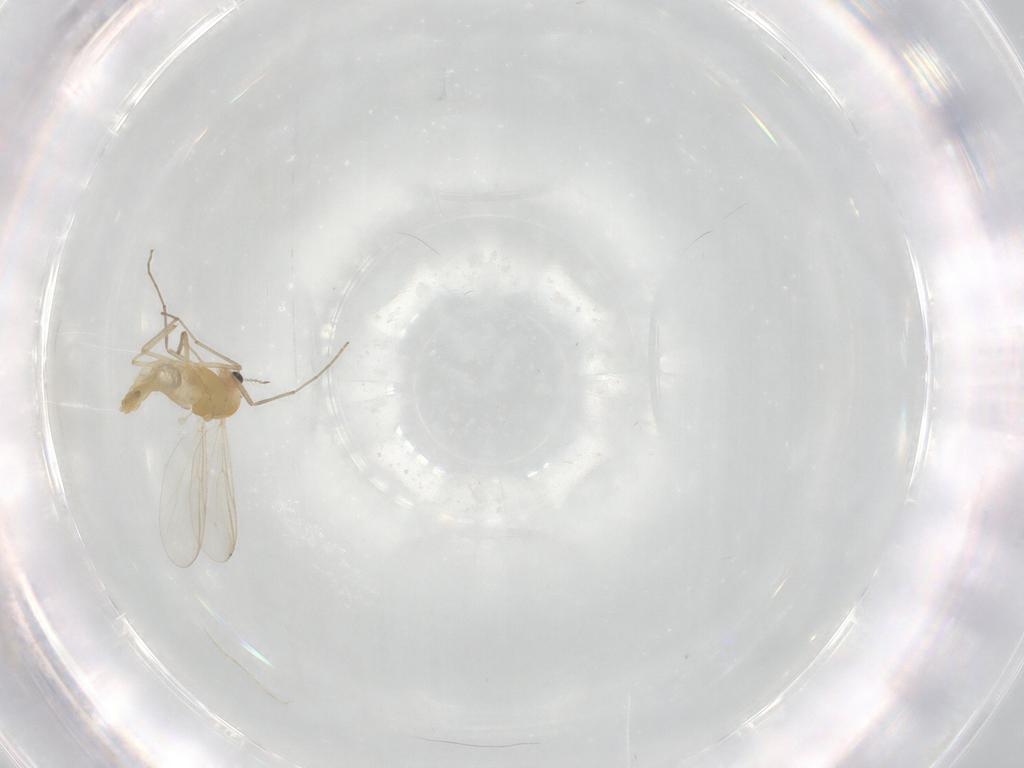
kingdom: Animalia
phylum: Arthropoda
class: Insecta
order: Diptera
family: Chironomidae
